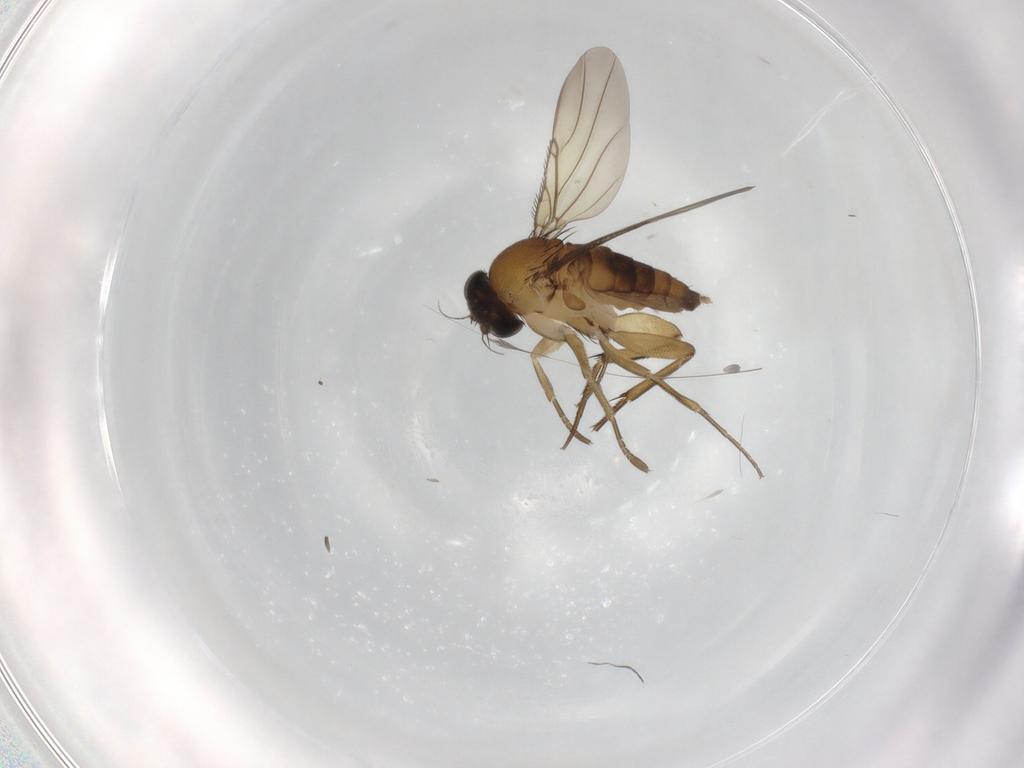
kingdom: Animalia
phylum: Arthropoda
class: Insecta
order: Diptera
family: Phoridae
